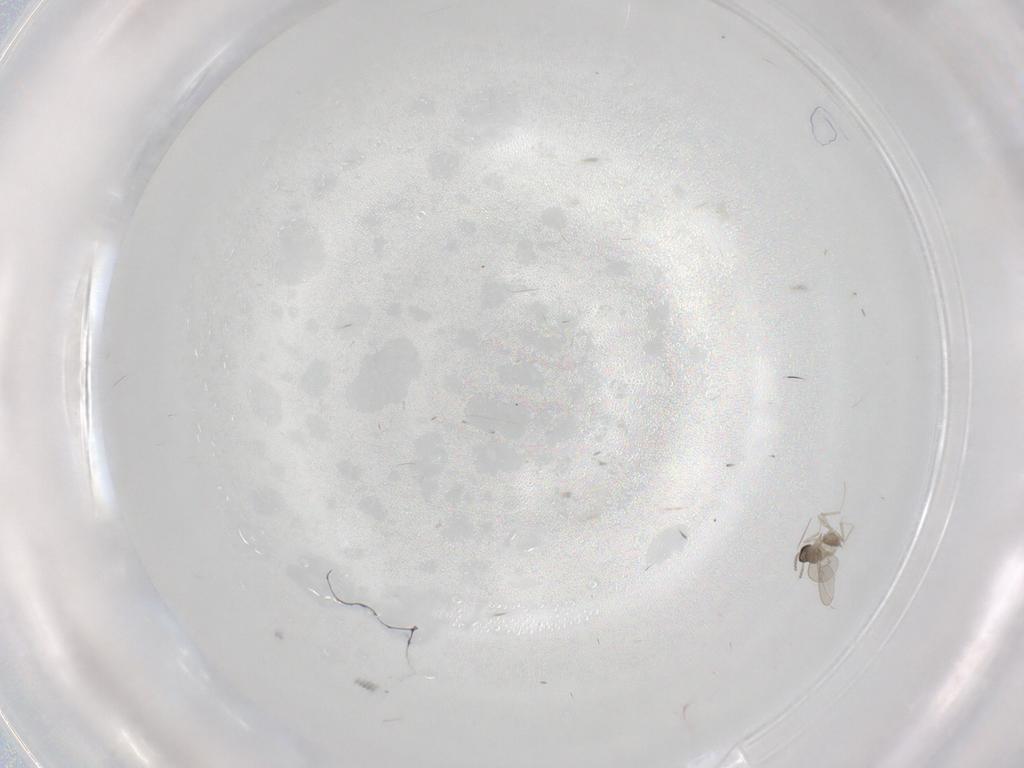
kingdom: Animalia
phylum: Arthropoda
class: Insecta
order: Diptera
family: Cecidomyiidae
